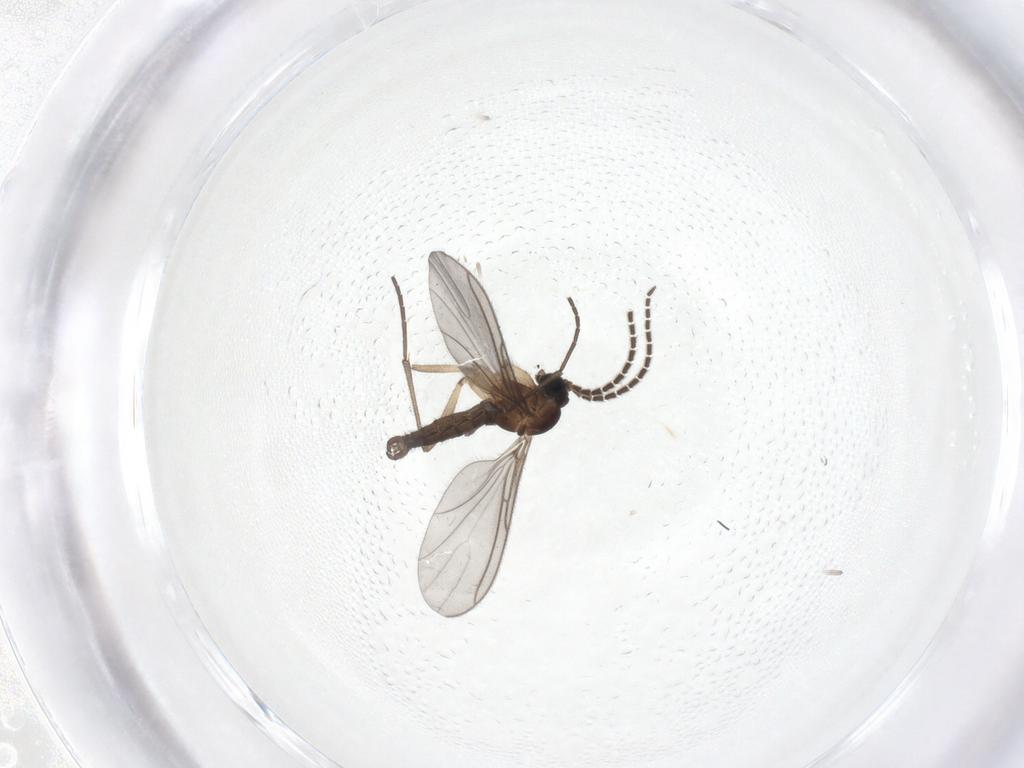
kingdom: Animalia
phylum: Arthropoda
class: Insecta
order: Diptera
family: Sciaridae
